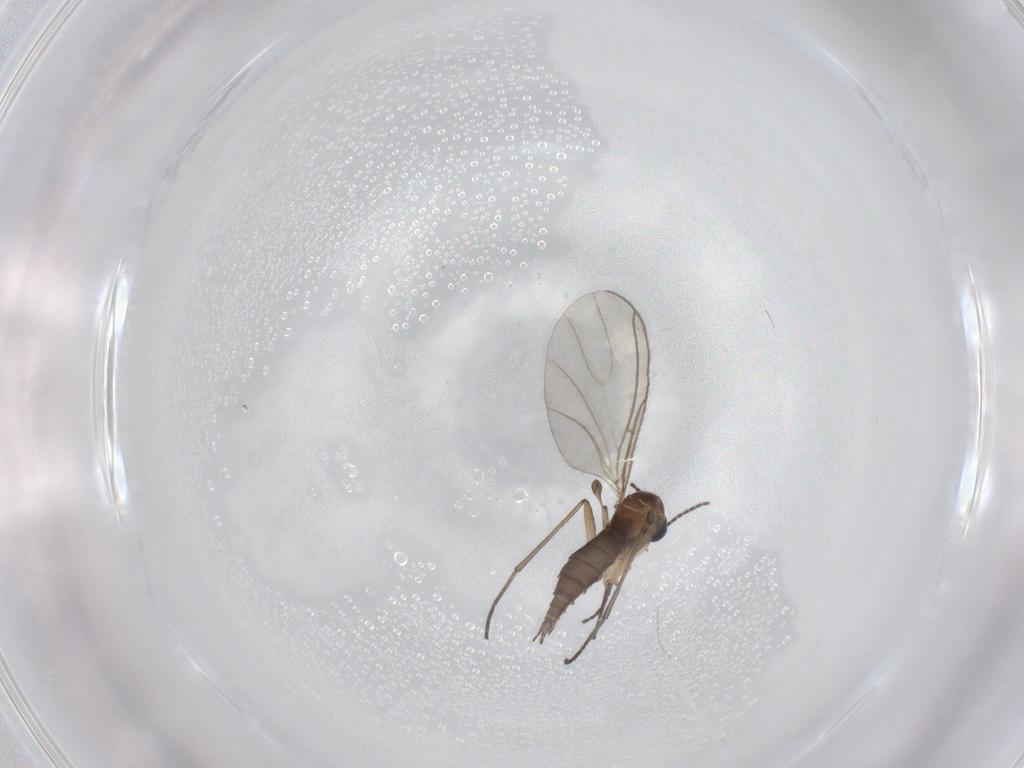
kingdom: Animalia
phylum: Arthropoda
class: Insecta
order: Diptera
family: Sciaridae
